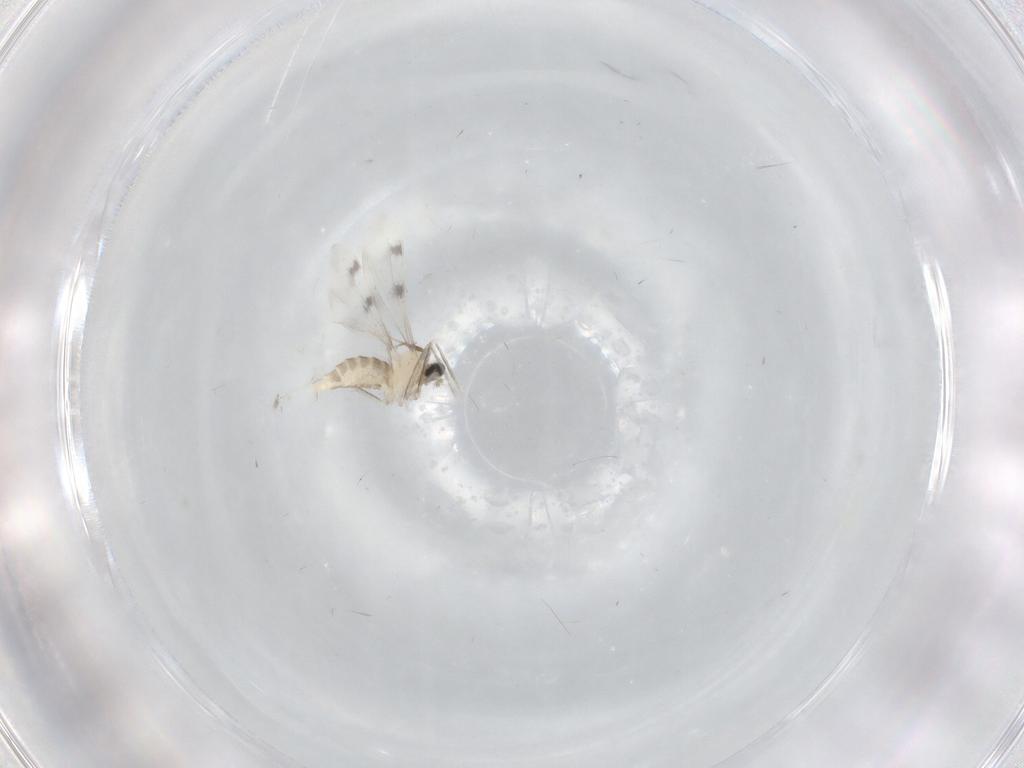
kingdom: Animalia
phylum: Arthropoda
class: Insecta
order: Diptera
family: Cecidomyiidae
